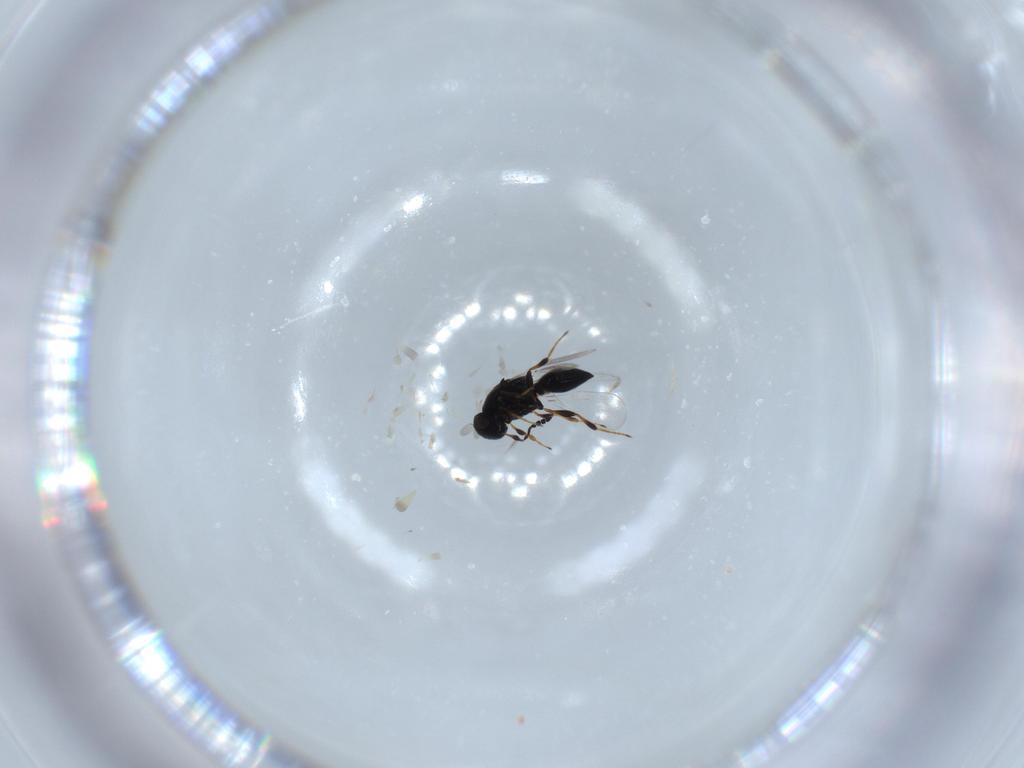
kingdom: Animalia
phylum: Arthropoda
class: Insecta
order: Hymenoptera
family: Platygastridae
